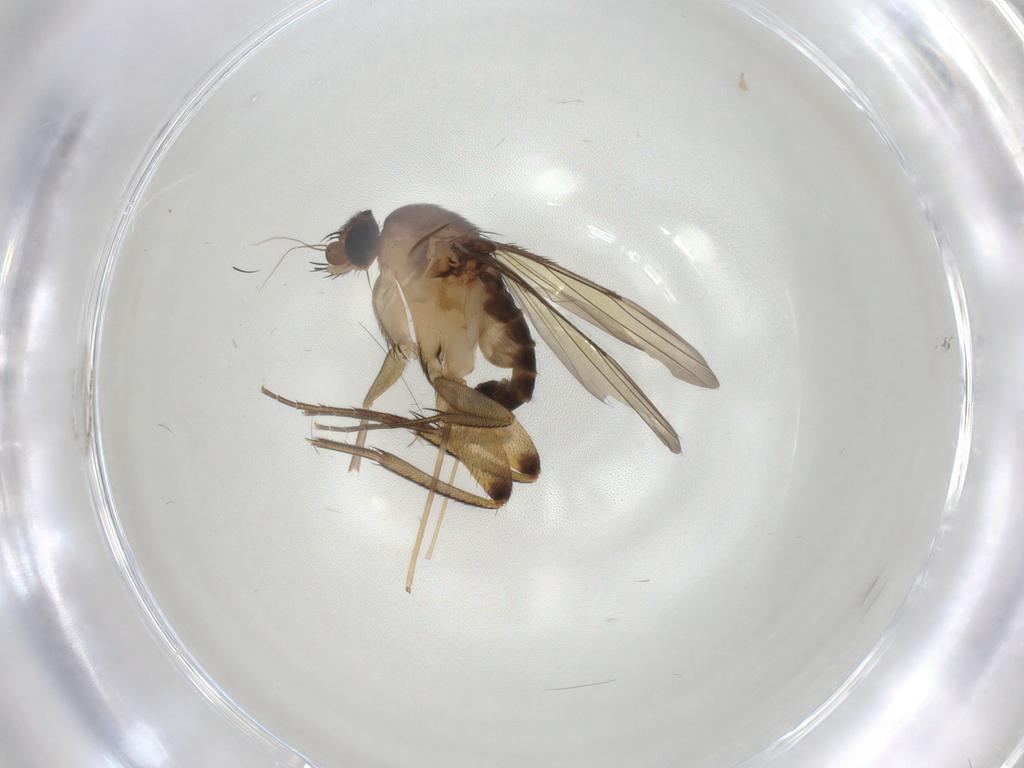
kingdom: Animalia
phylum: Arthropoda
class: Insecta
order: Diptera
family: Phoridae
